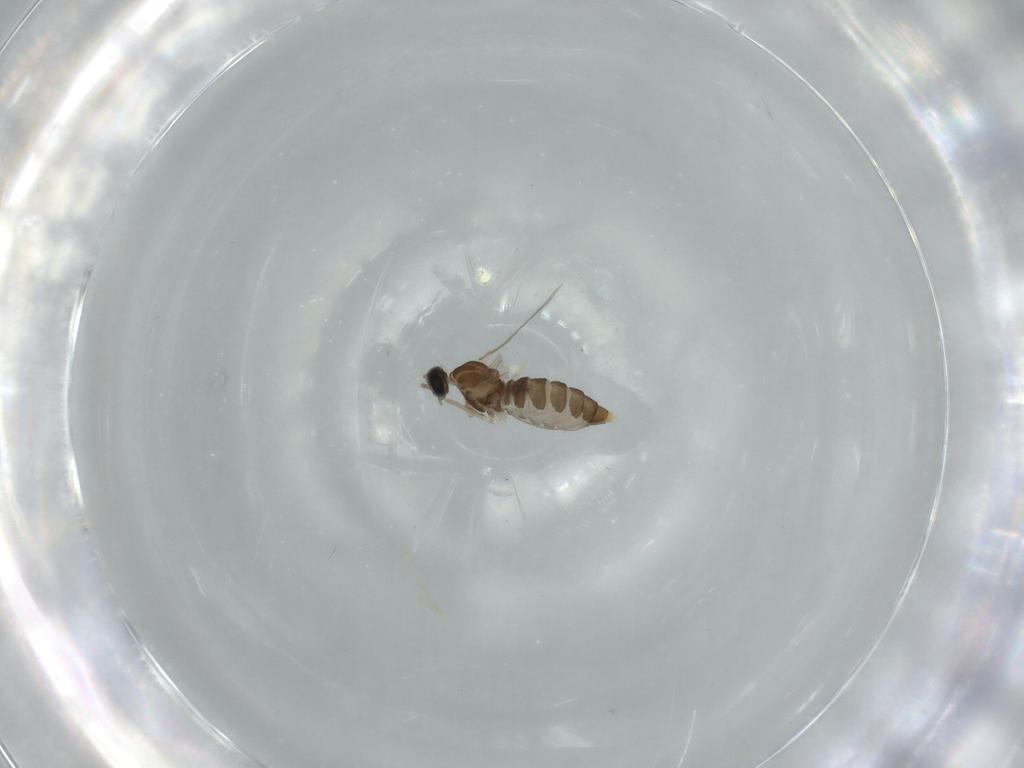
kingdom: Animalia
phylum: Arthropoda
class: Insecta
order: Diptera
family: Cecidomyiidae
